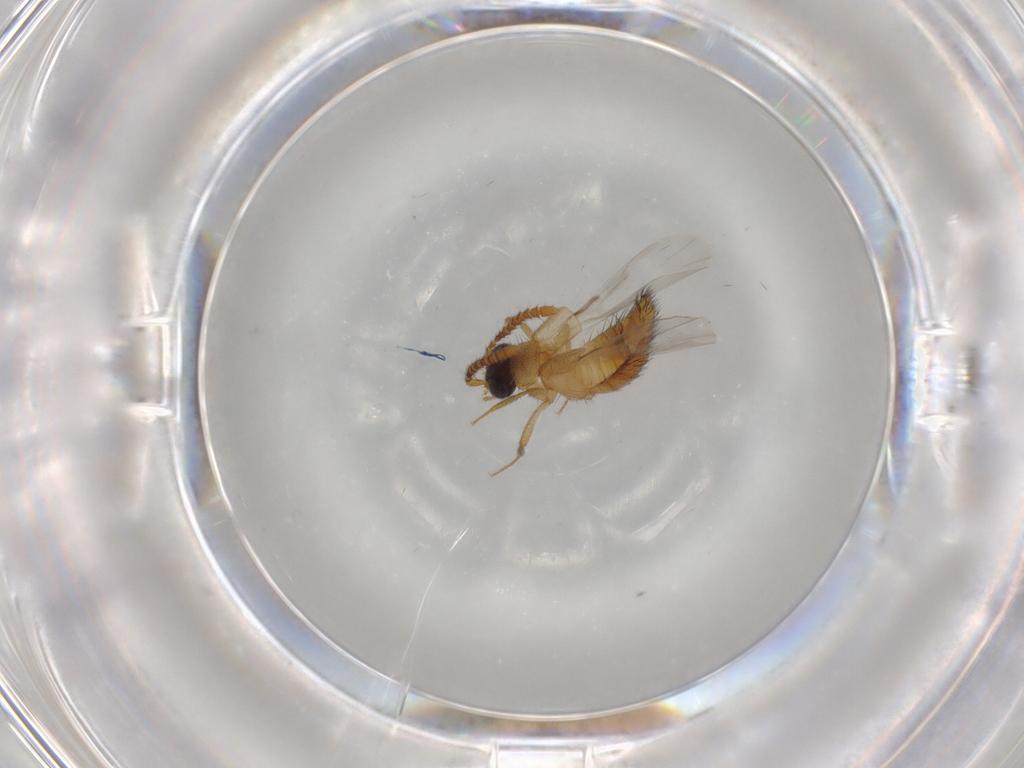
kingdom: Animalia
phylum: Arthropoda
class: Insecta
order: Coleoptera
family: Staphylinidae
